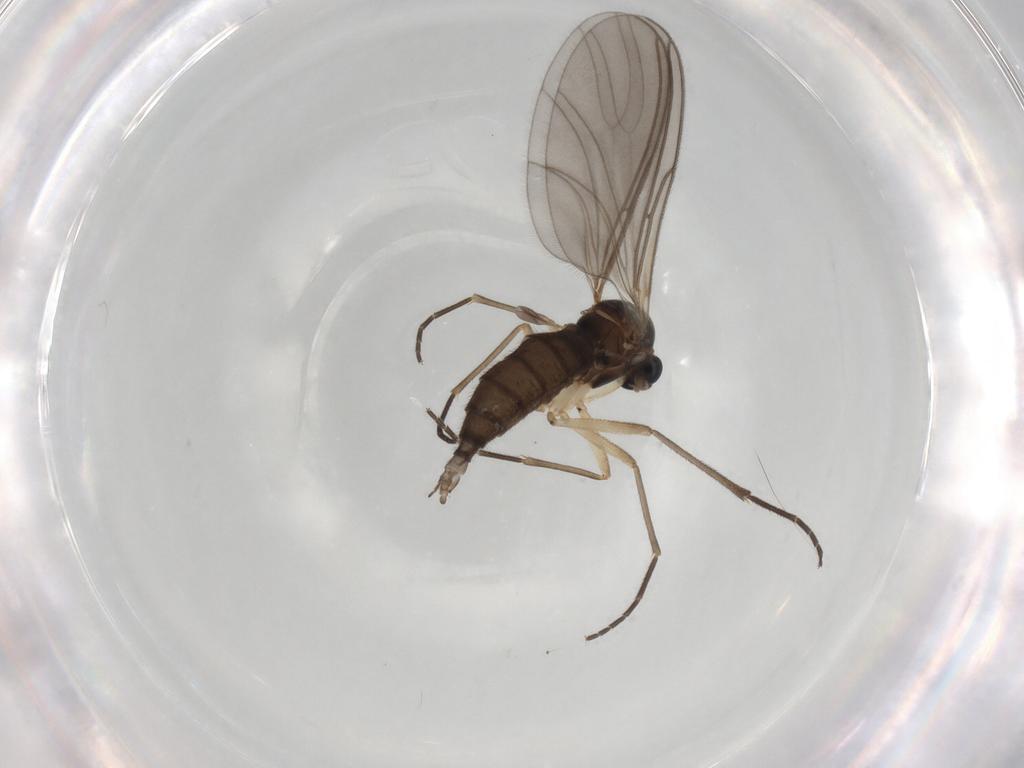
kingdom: Animalia
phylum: Arthropoda
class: Insecta
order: Diptera
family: Sciaridae
